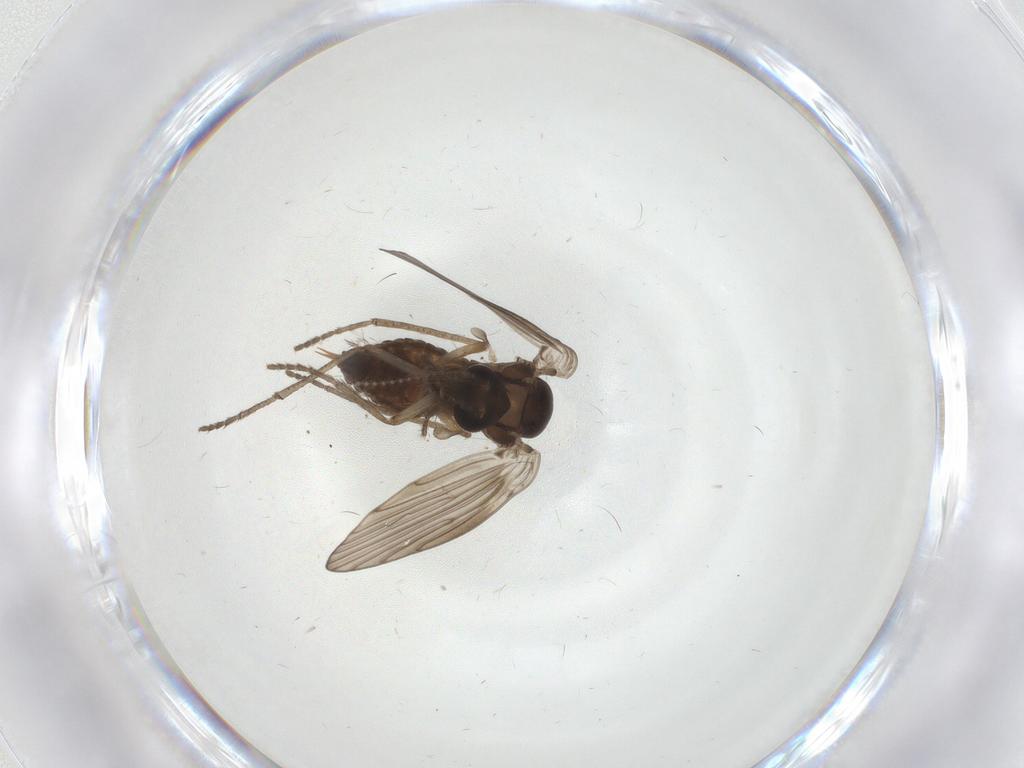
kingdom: Animalia
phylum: Arthropoda
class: Insecta
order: Diptera
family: Psychodidae
